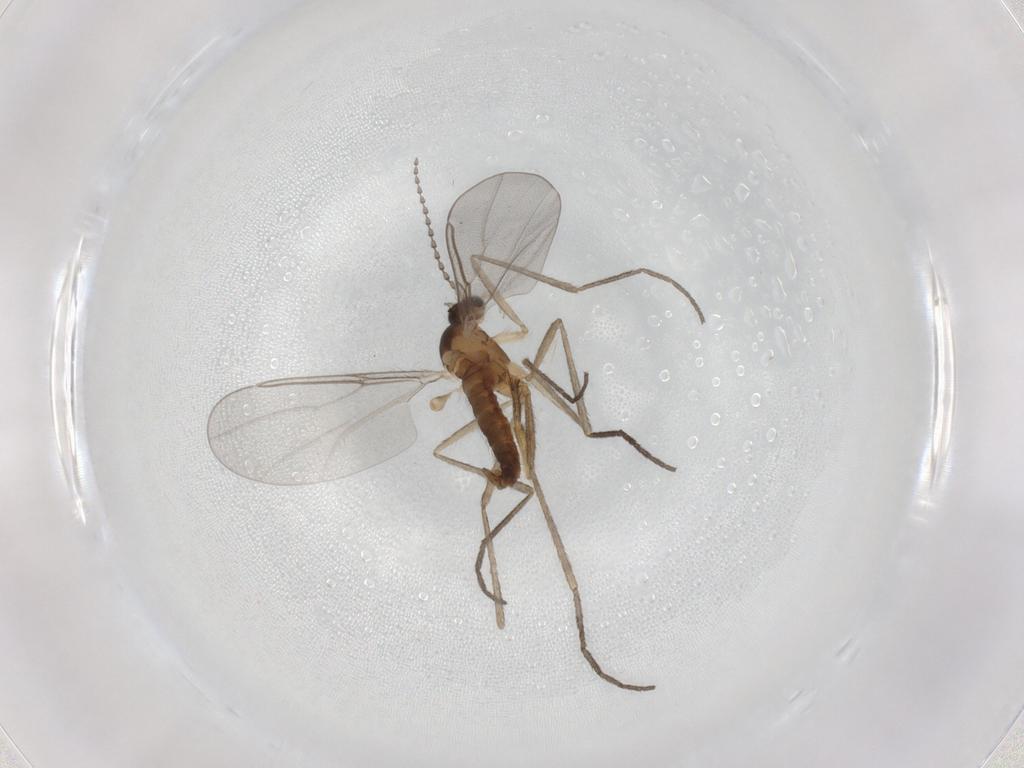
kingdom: Animalia
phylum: Arthropoda
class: Insecta
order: Diptera
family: Cecidomyiidae
